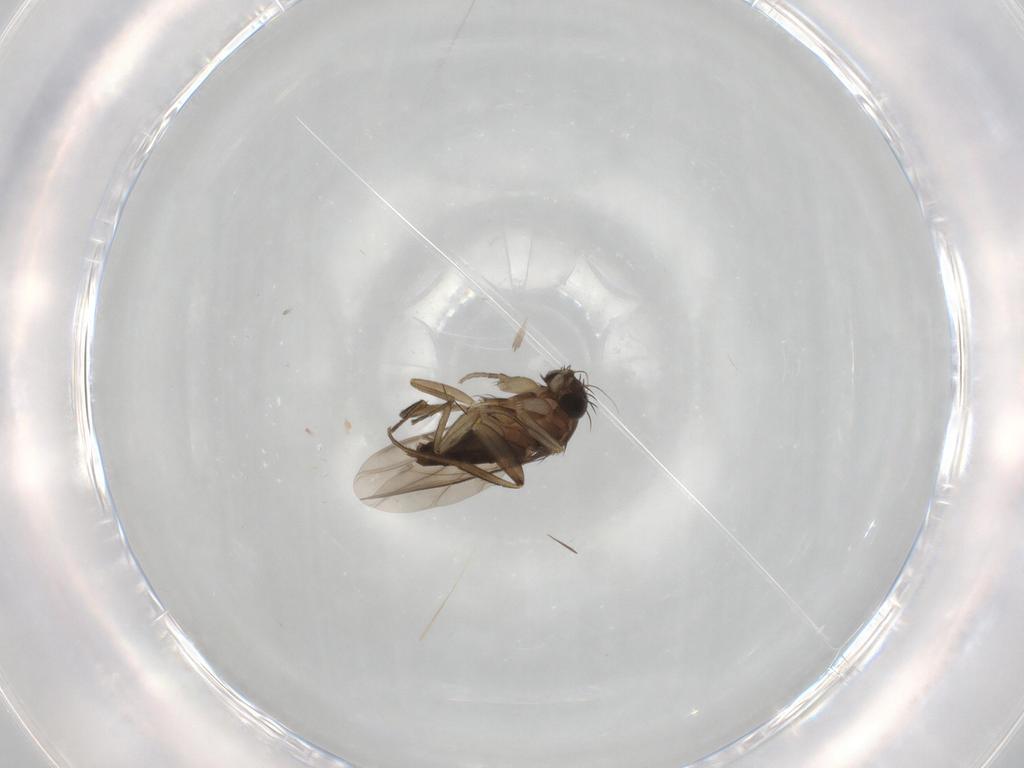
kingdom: Animalia
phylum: Arthropoda
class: Insecta
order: Diptera
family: Phoridae
